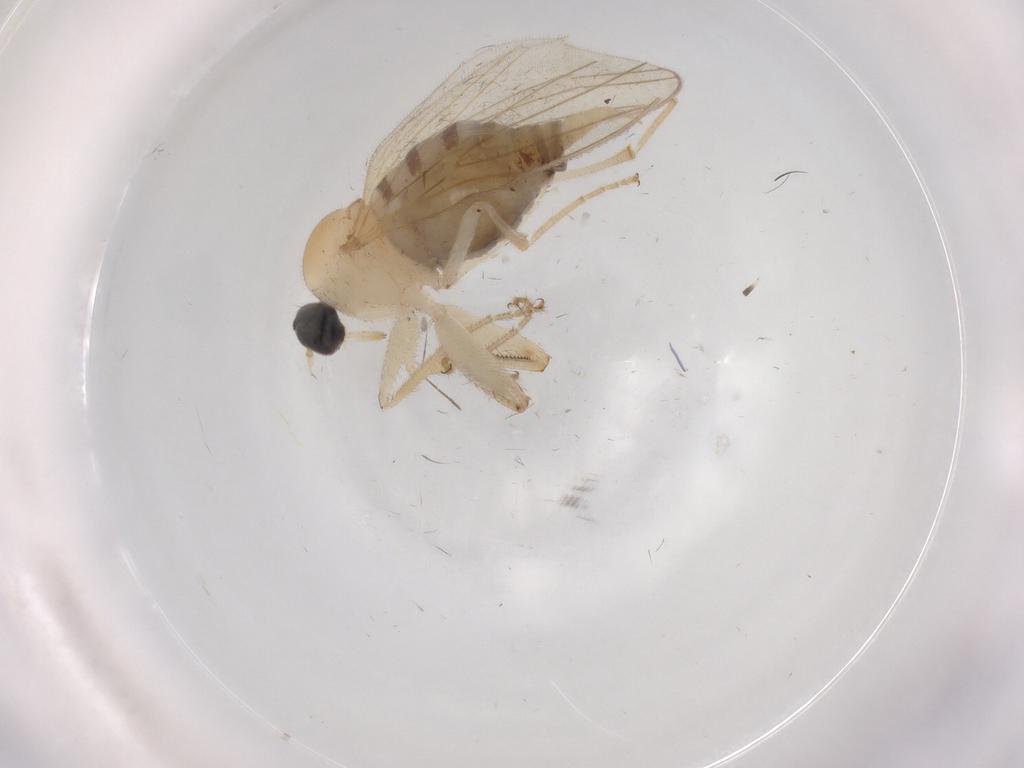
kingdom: Animalia
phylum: Arthropoda
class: Insecta
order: Diptera
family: Hybotidae
